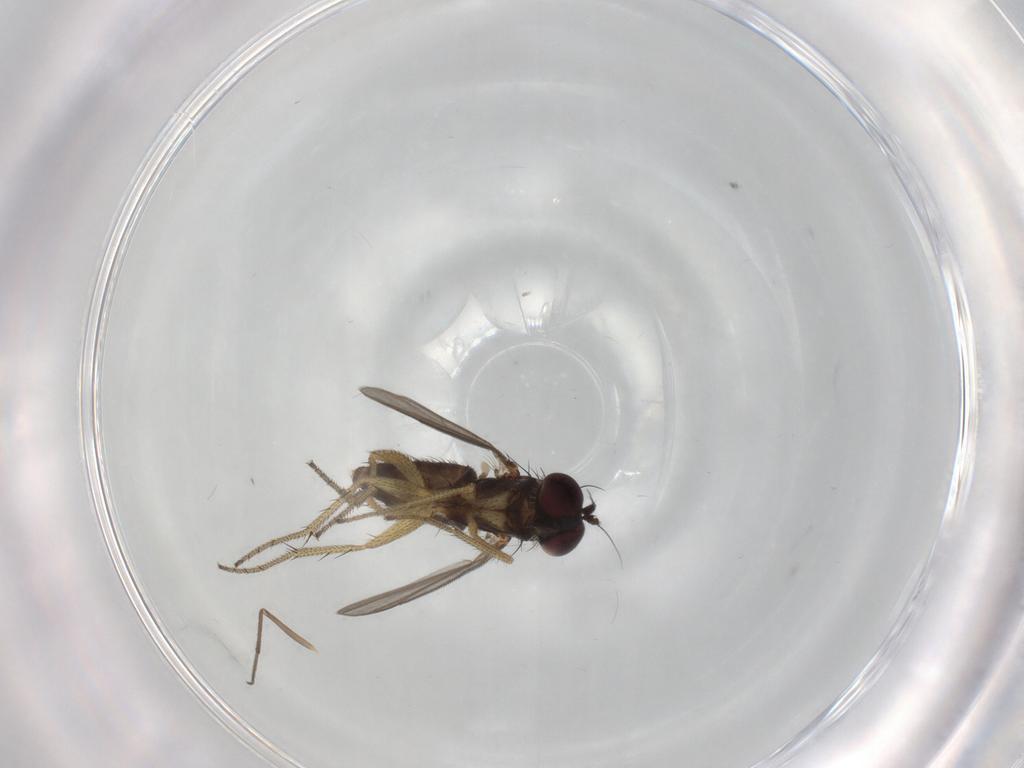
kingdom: Animalia
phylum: Arthropoda
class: Insecta
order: Diptera
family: Chironomidae
